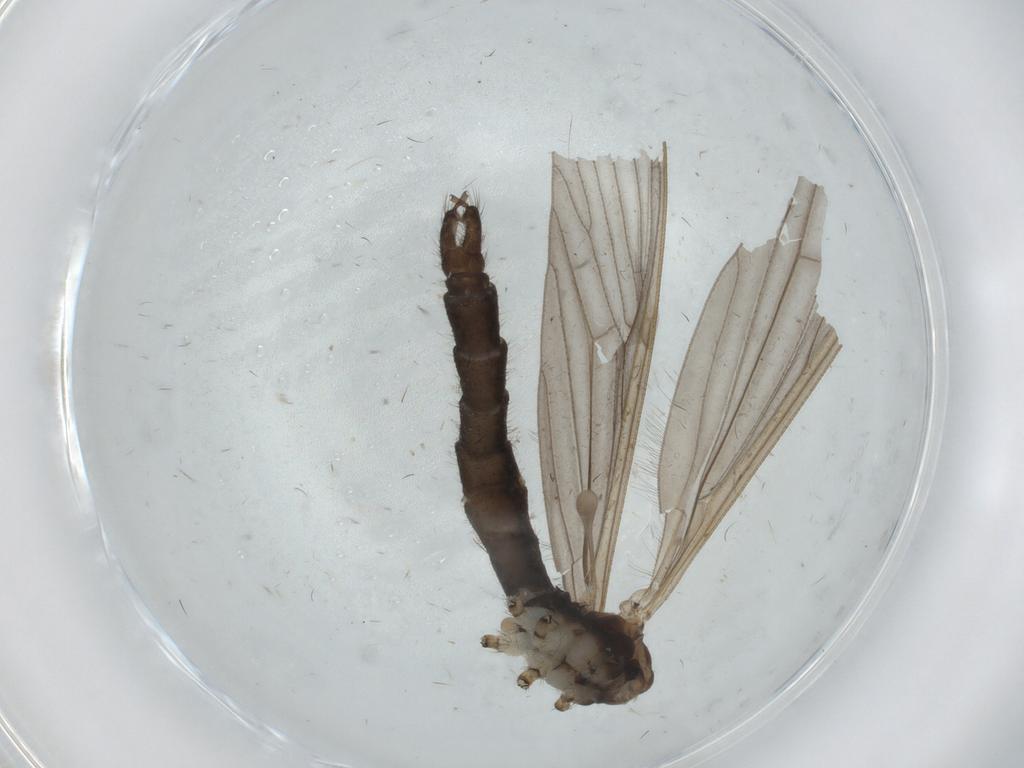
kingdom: Animalia
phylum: Arthropoda
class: Insecta
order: Diptera
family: Limoniidae
